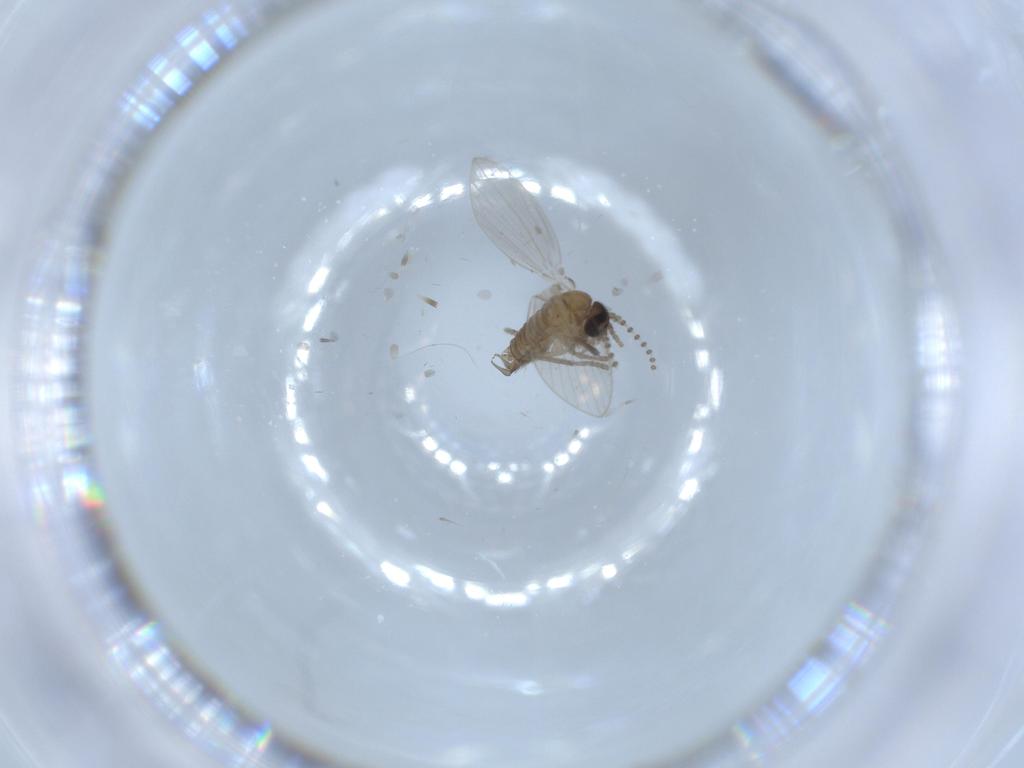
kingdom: Animalia
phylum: Arthropoda
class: Insecta
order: Diptera
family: Psychodidae
